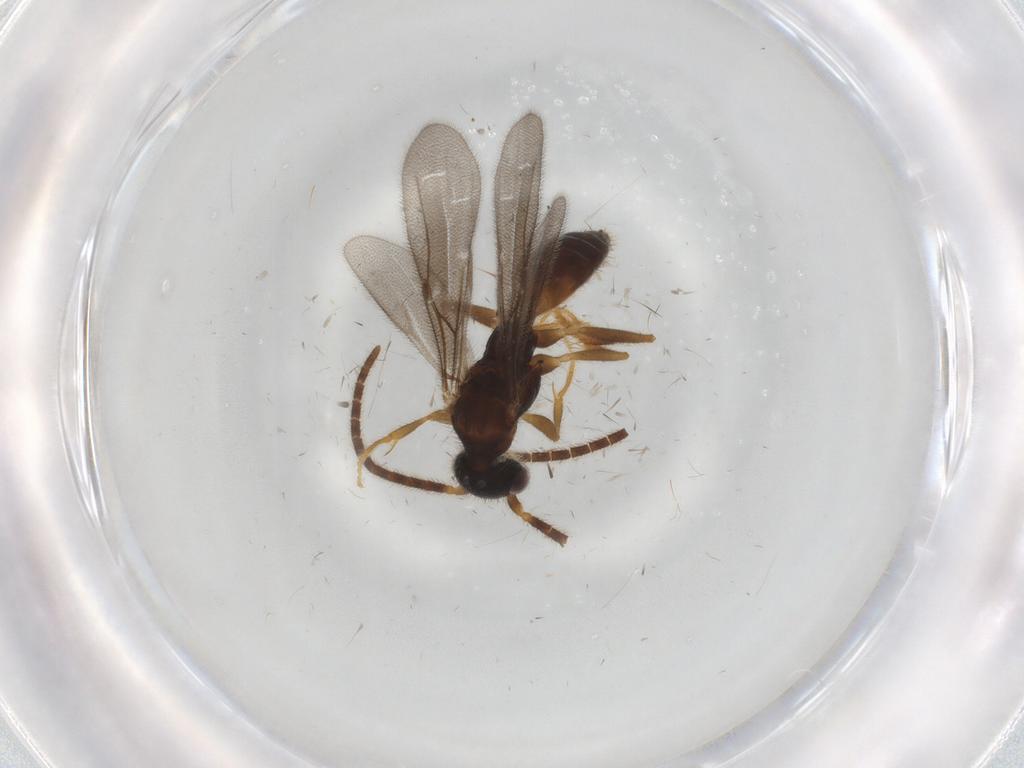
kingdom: Animalia
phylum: Arthropoda
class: Insecta
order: Hymenoptera
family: Bethylidae
